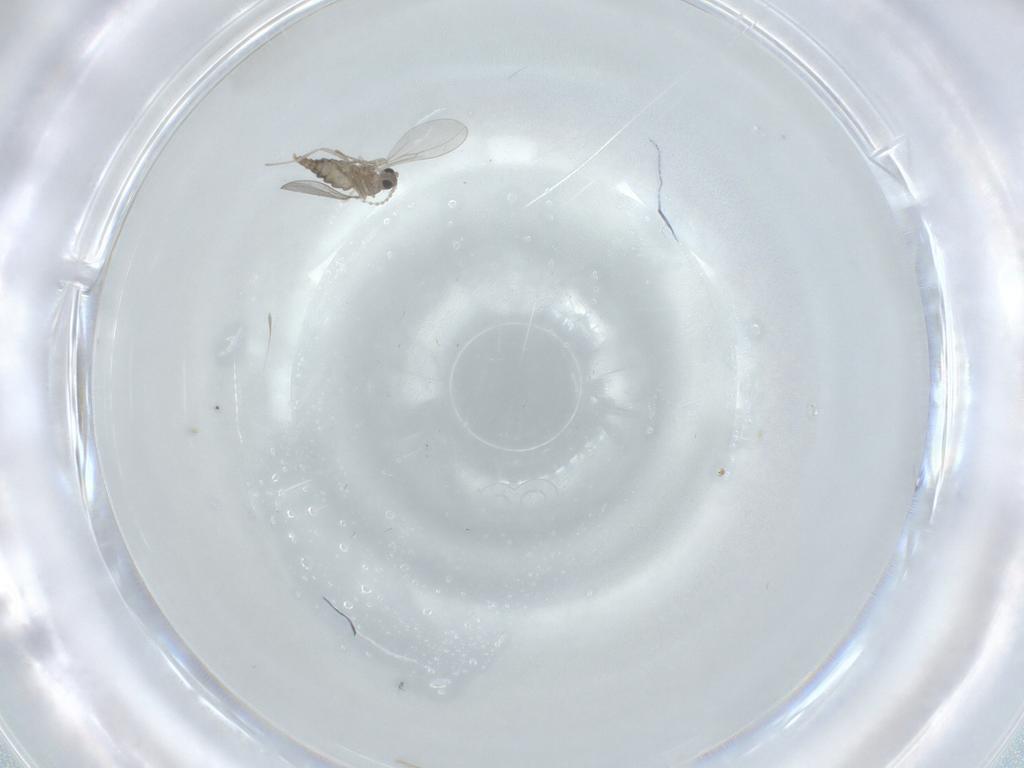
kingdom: Animalia
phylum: Arthropoda
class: Insecta
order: Diptera
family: Cecidomyiidae
